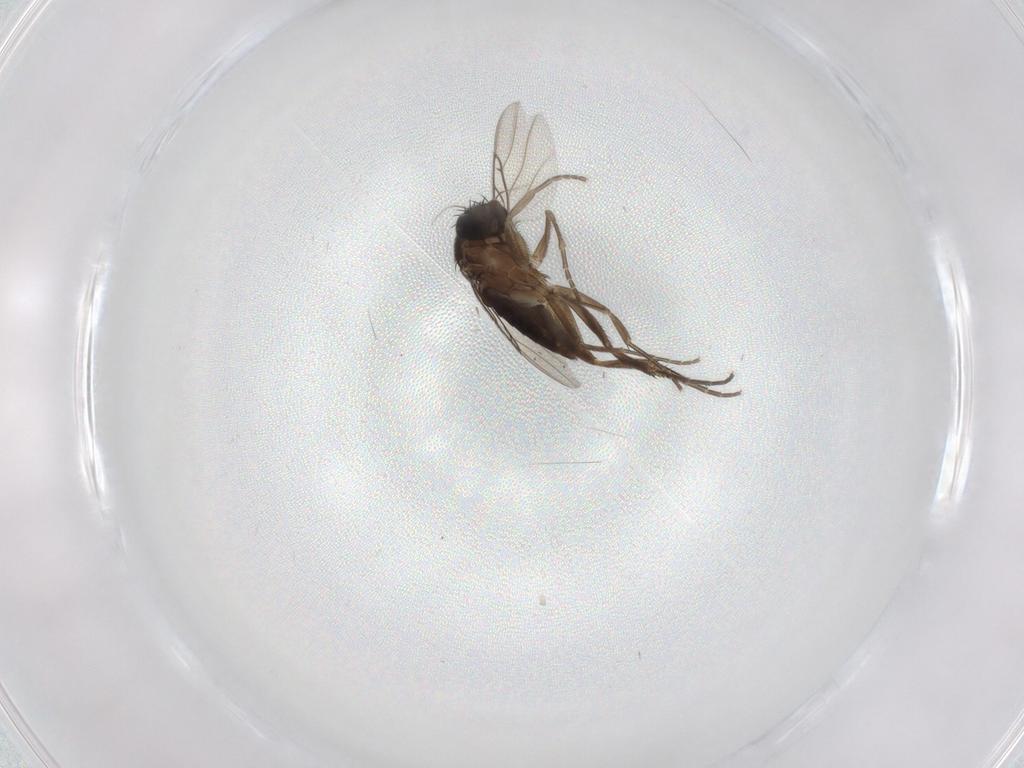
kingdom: Animalia
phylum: Arthropoda
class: Insecta
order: Diptera
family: Phoridae
